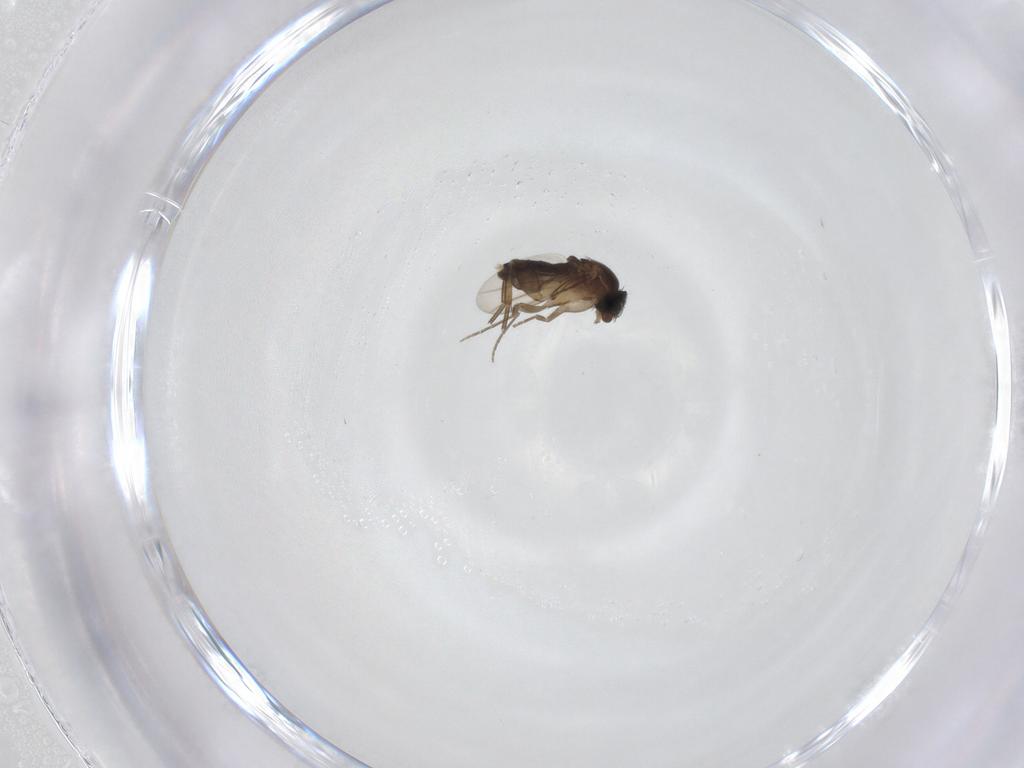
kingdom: Animalia
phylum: Arthropoda
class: Insecta
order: Diptera
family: Phoridae
